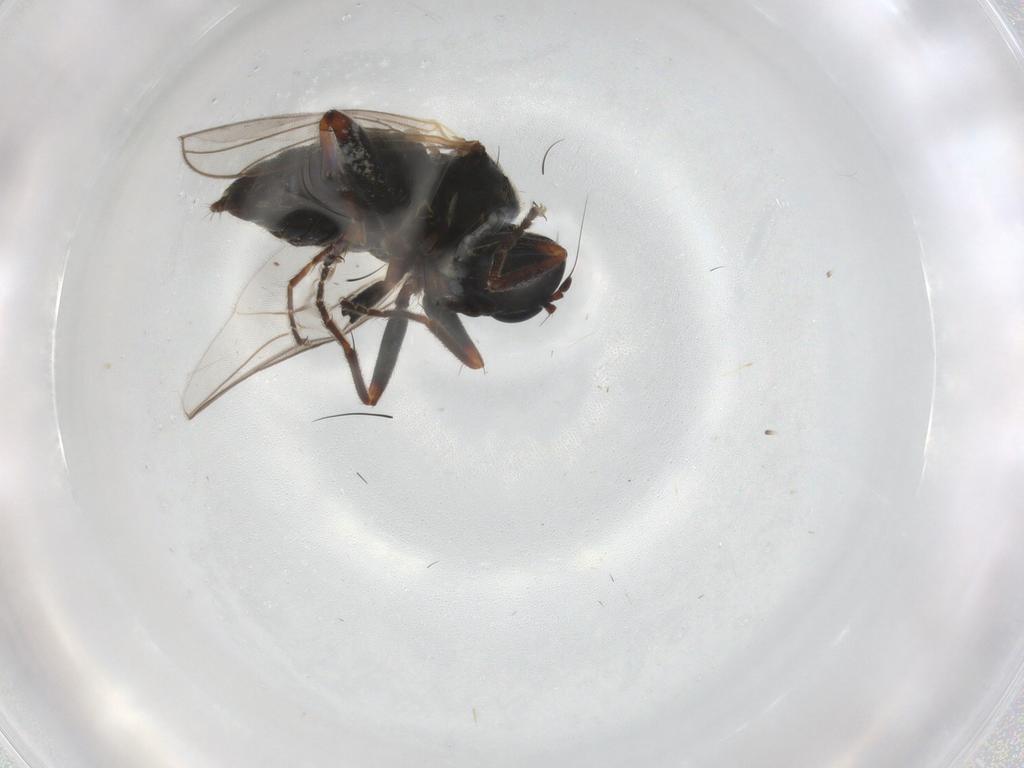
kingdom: Animalia
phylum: Arthropoda
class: Insecta
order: Diptera
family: Hybotidae
